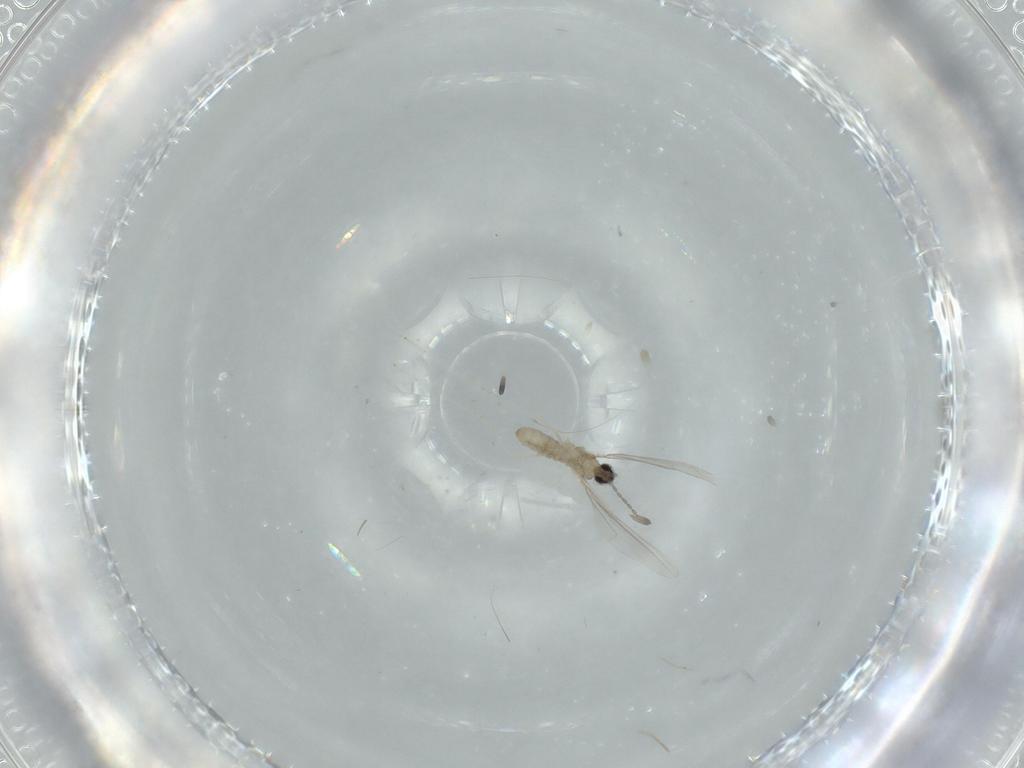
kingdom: Animalia
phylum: Arthropoda
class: Insecta
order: Diptera
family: Cecidomyiidae
